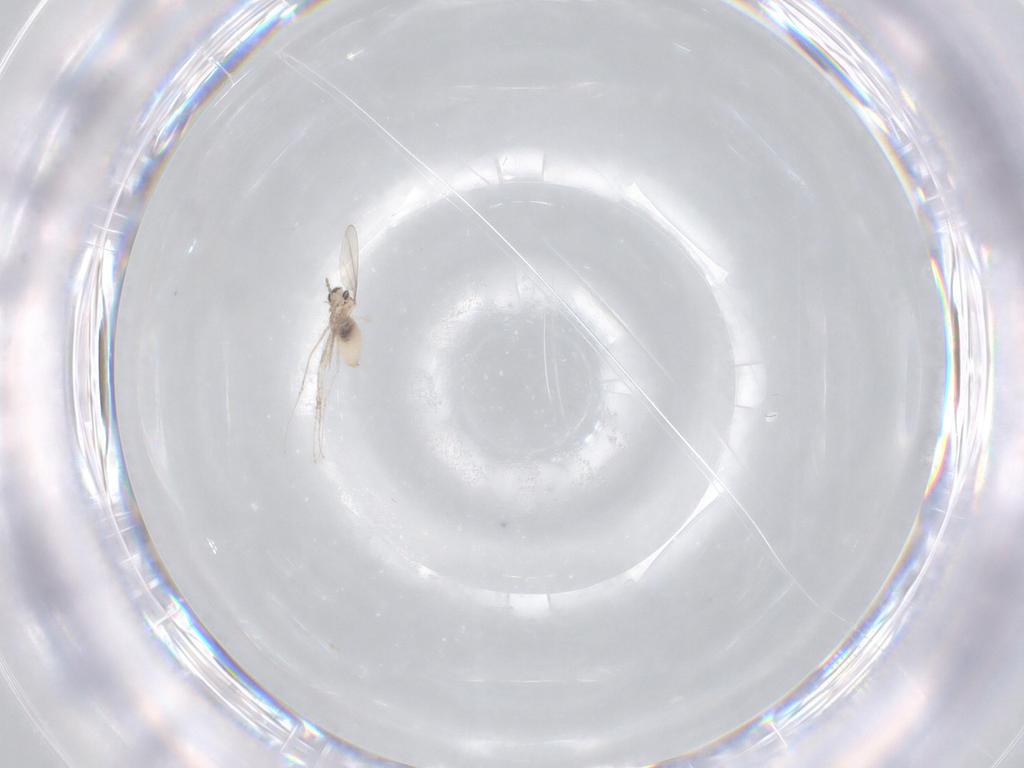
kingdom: Animalia
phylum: Arthropoda
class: Insecta
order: Diptera
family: Cecidomyiidae
